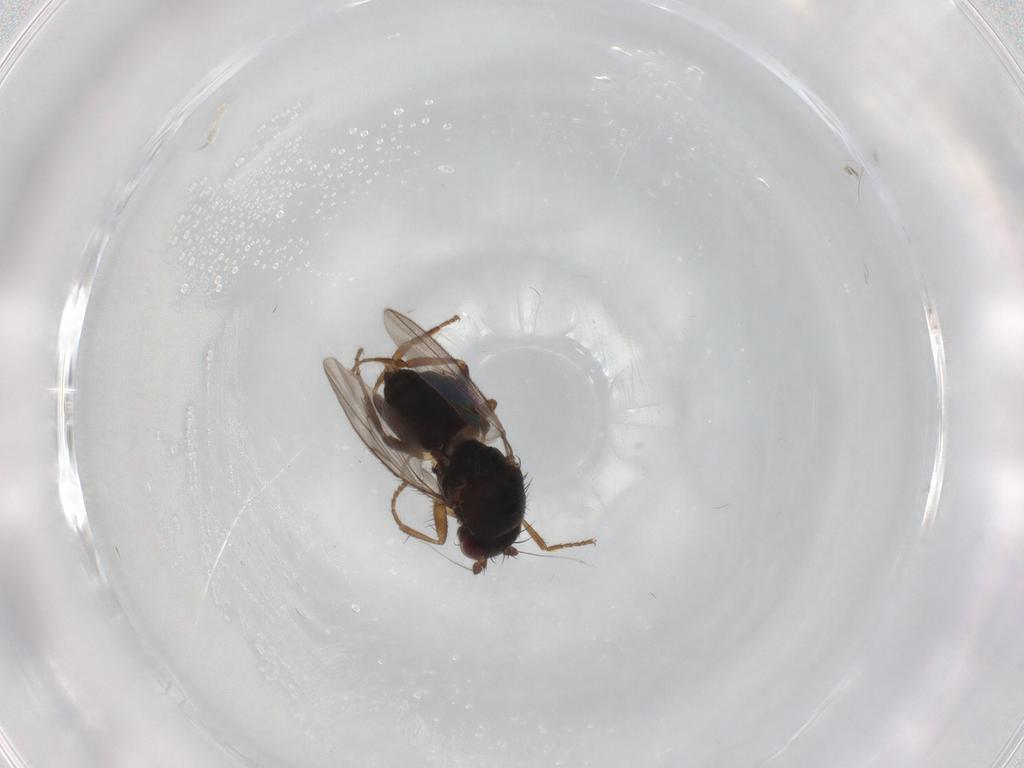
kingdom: Animalia
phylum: Arthropoda
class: Insecta
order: Diptera
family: Sphaeroceridae
